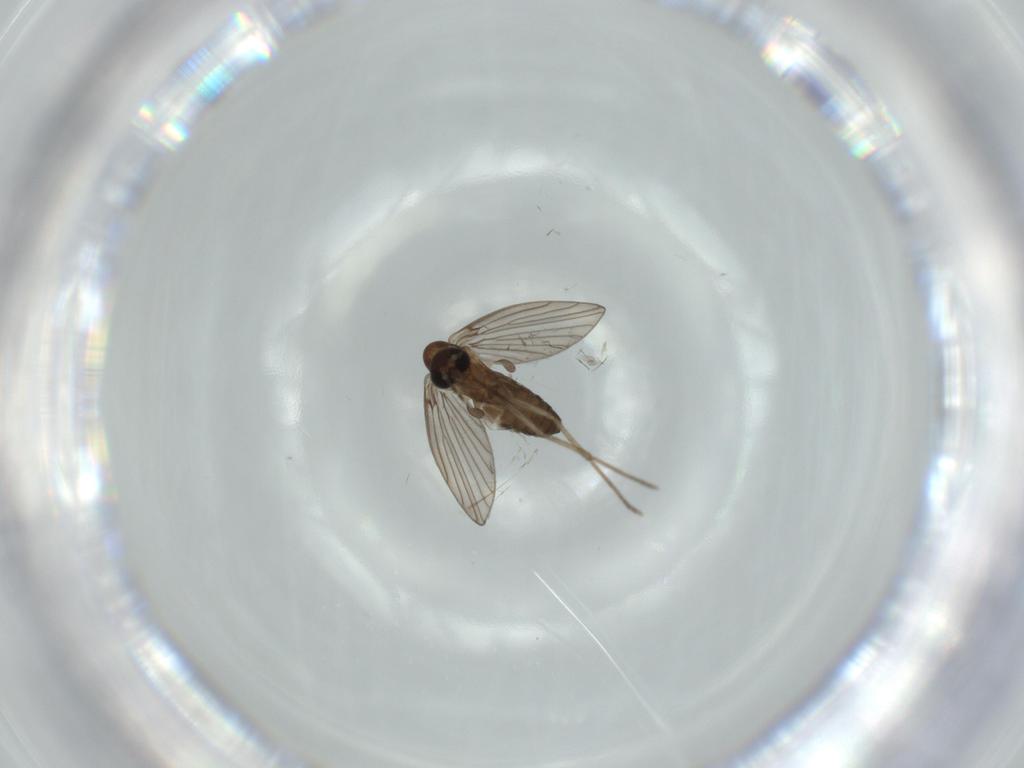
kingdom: Animalia
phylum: Arthropoda
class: Insecta
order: Diptera
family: Psychodidae
